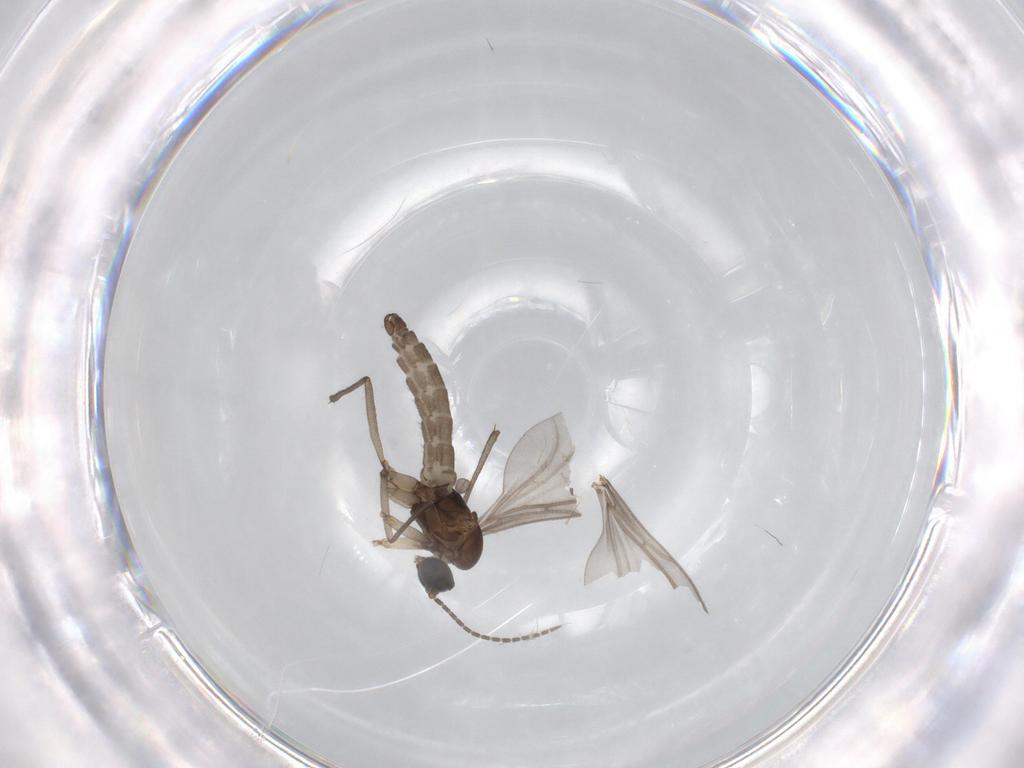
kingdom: Animalia
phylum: Arthropoda
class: Insecta
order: Diptera
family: Sciaridae
